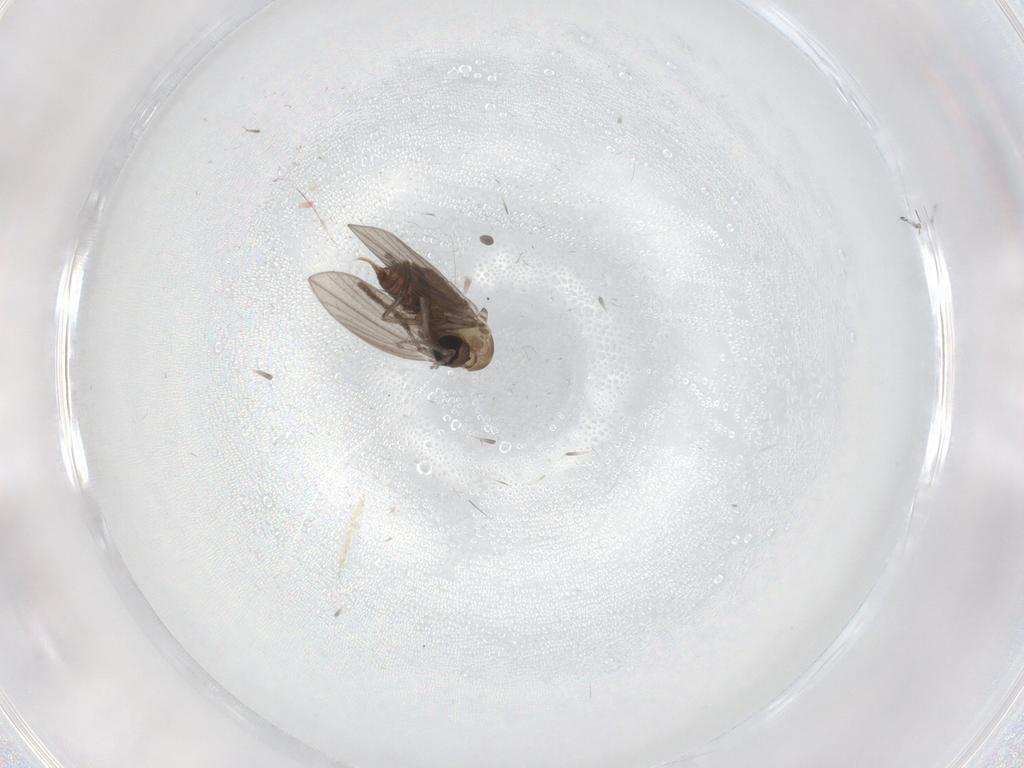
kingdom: Animalia
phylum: Arthropoda
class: Insecta
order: Diptera
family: Psychodidae
